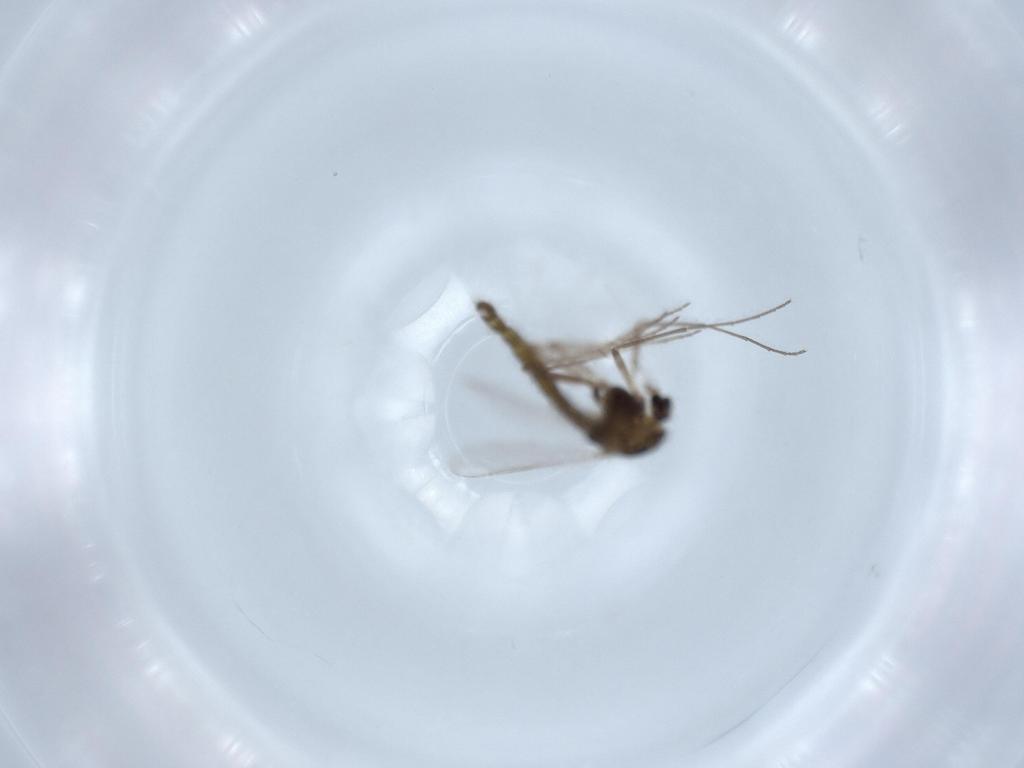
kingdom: Animalia
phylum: Arthropoda
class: Insecta
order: Diptera
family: Chironomidae
